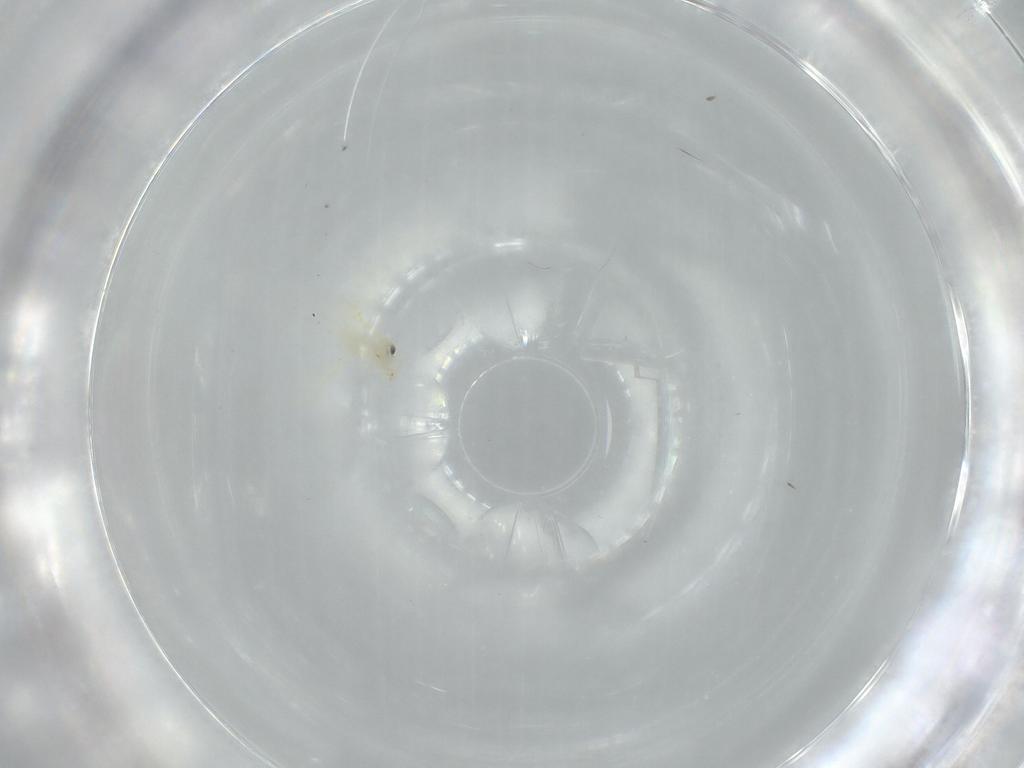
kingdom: Animalia
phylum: Arthropoda
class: Insecta
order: Hemiptera
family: Aleyrodidae
